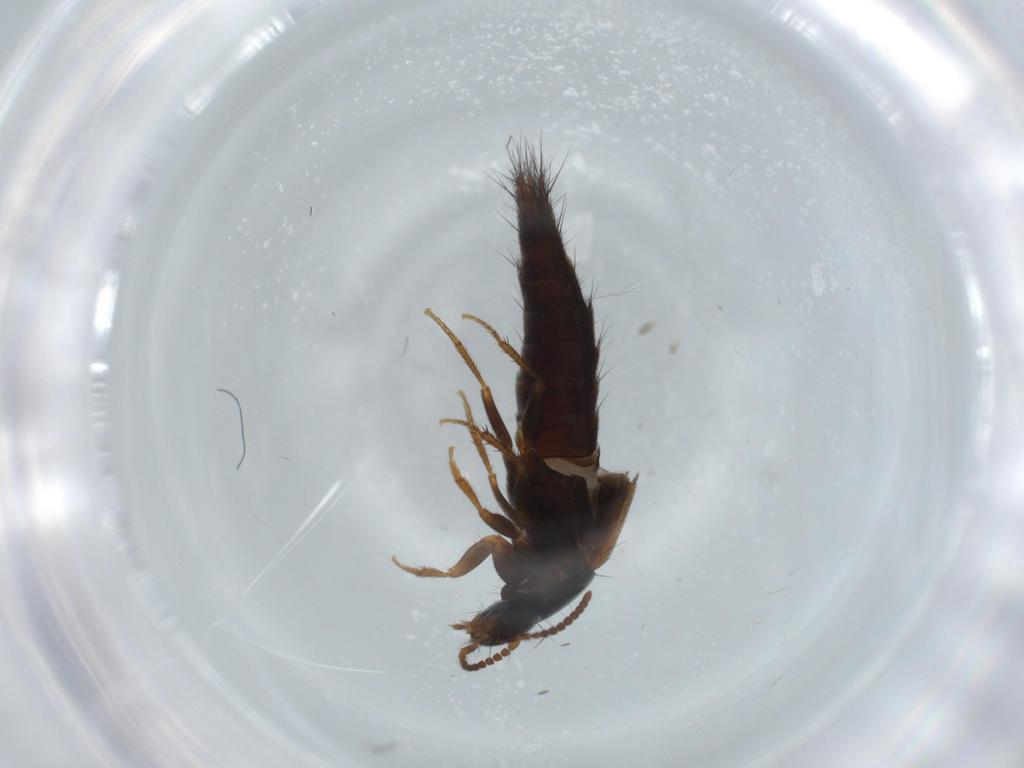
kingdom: Animalia
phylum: Arthropoda
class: Insecta
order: Coleoptera
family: Staphylinidae
